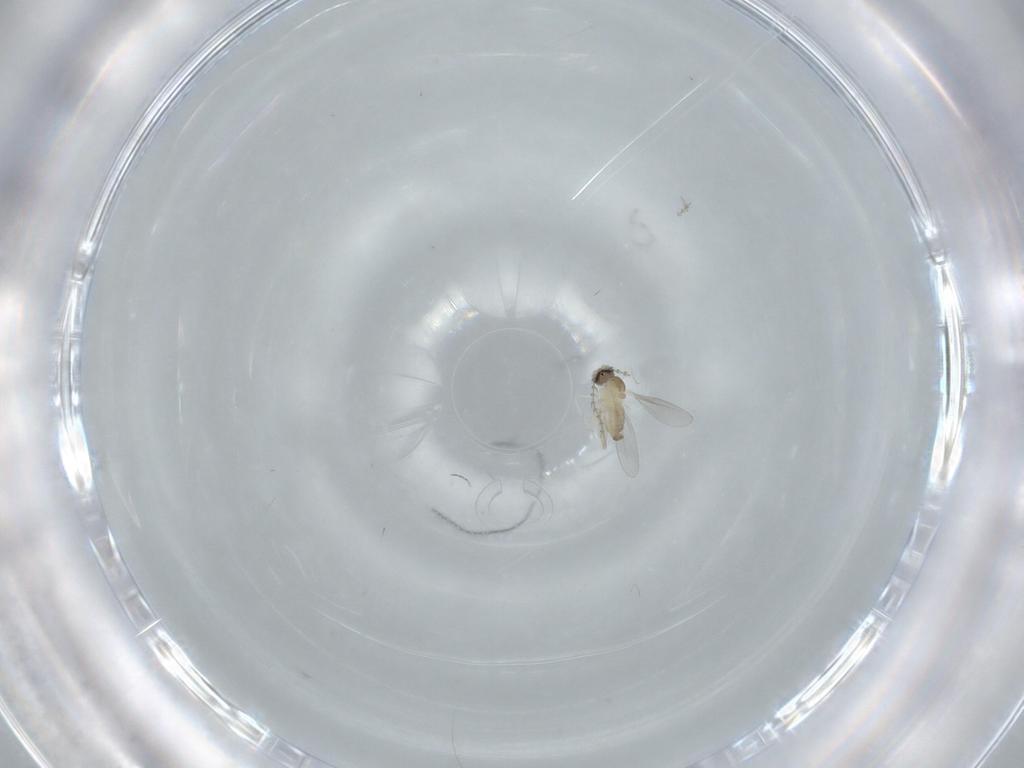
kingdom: Animalia
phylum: Arthropoda
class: Insecta
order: Diptera
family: Cecidomyiidae
